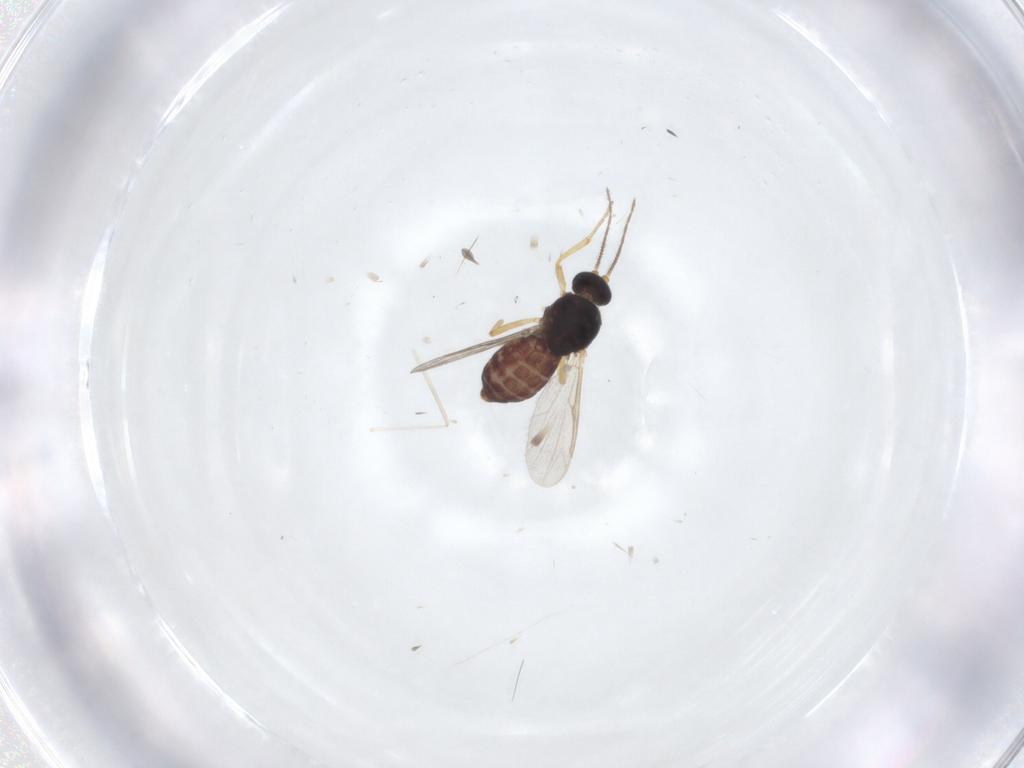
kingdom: Animalia
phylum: Arthropoda
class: Insecta
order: Diptera
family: Ceratopogonidae
